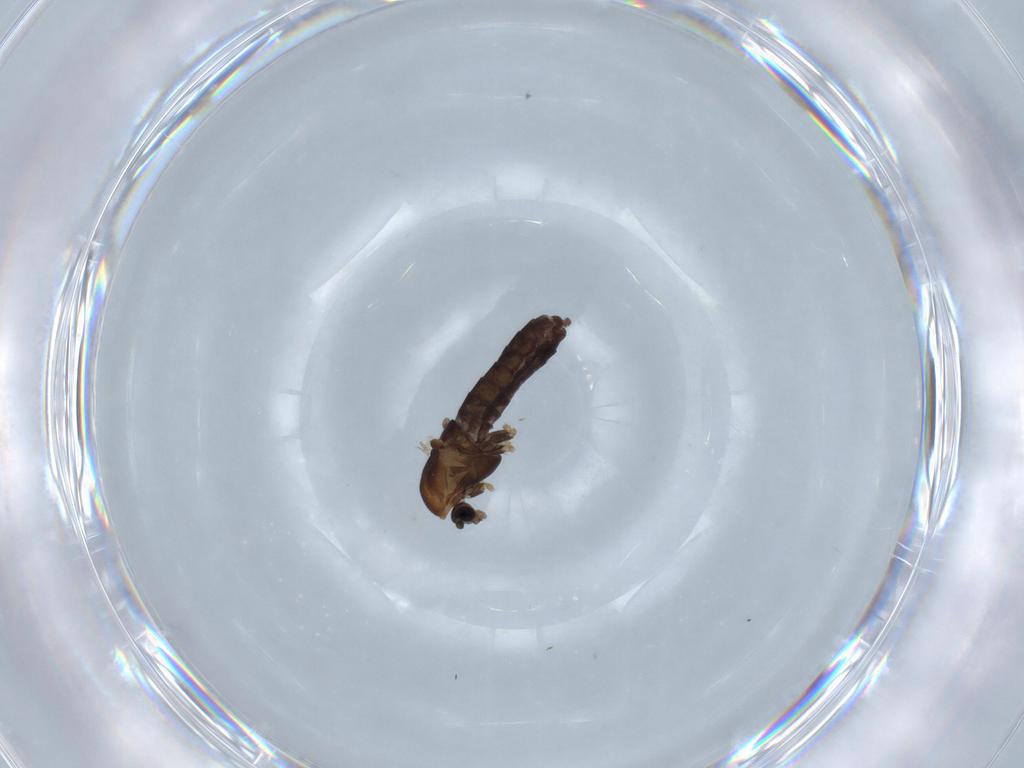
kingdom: Animalia
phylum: Arthropoda
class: Insecta
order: Diptera
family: Chironomidae
